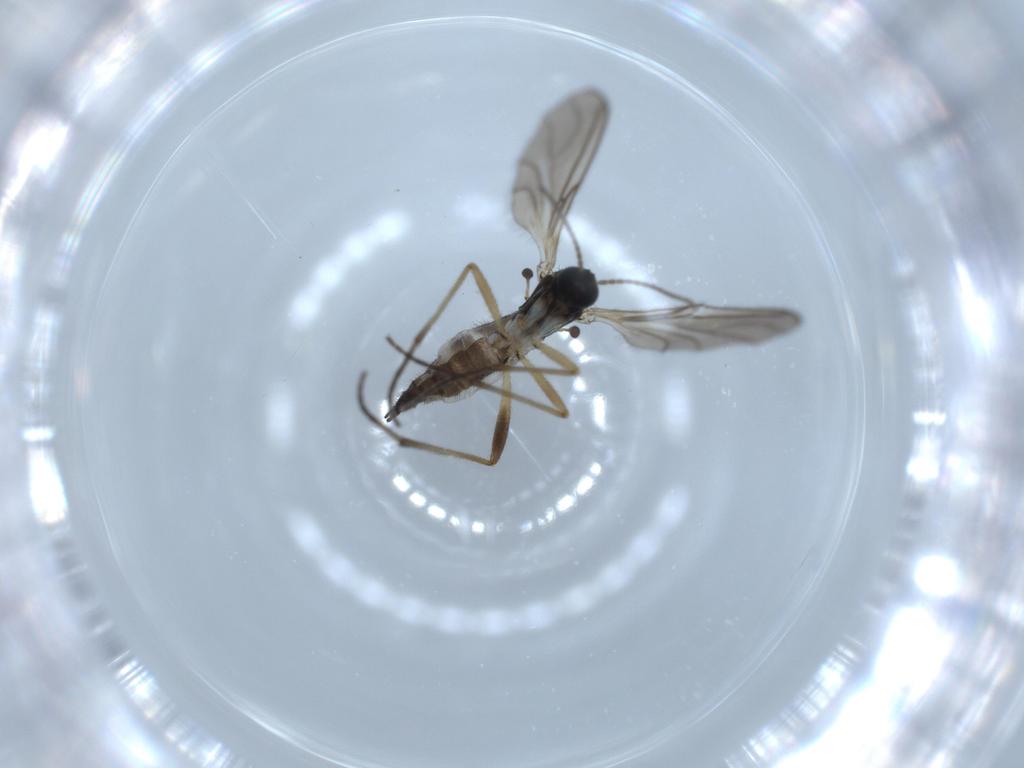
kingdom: Animalia
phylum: Arthropoda
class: Insecta
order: Diptera
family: Sciaridae
